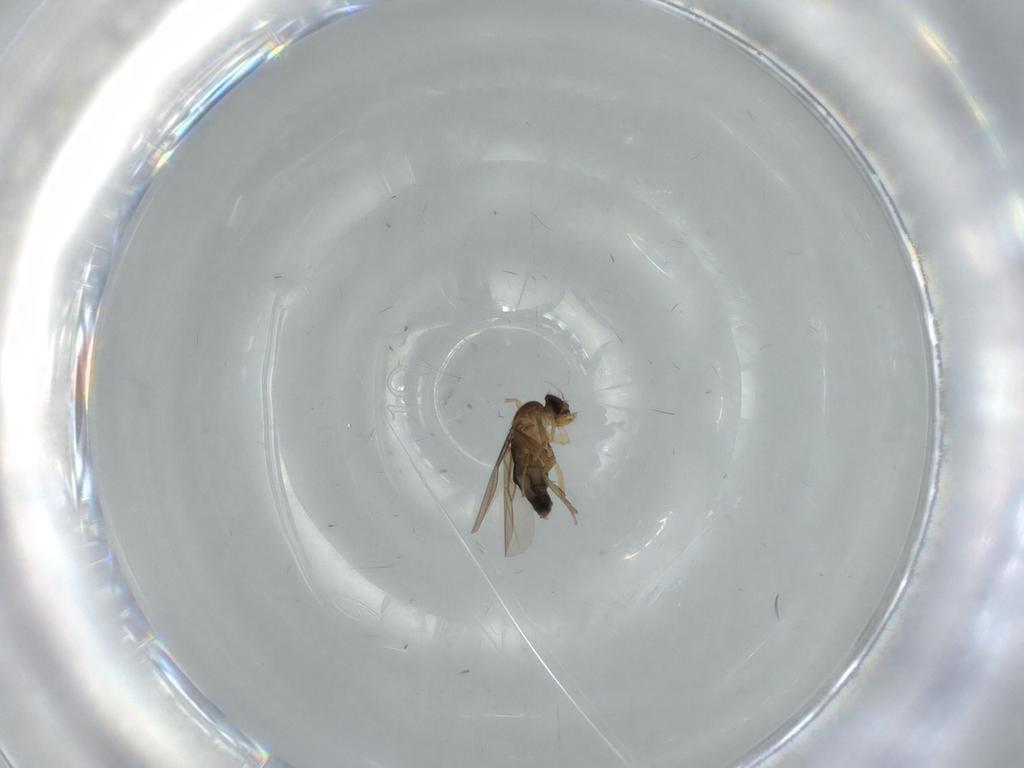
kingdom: Animalia
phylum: Arthropoda
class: Insecta
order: Diptera
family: Phoridae
